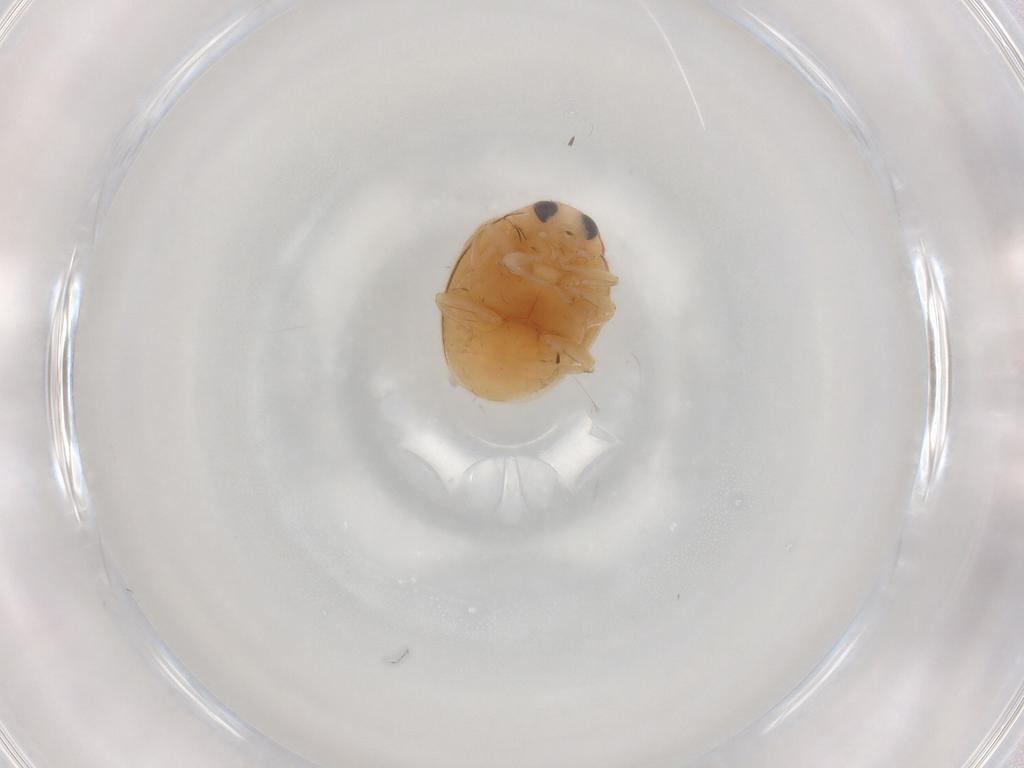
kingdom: Animalia
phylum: Arthropoda
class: Insecta
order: Coleoptera
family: Coccinellidae
